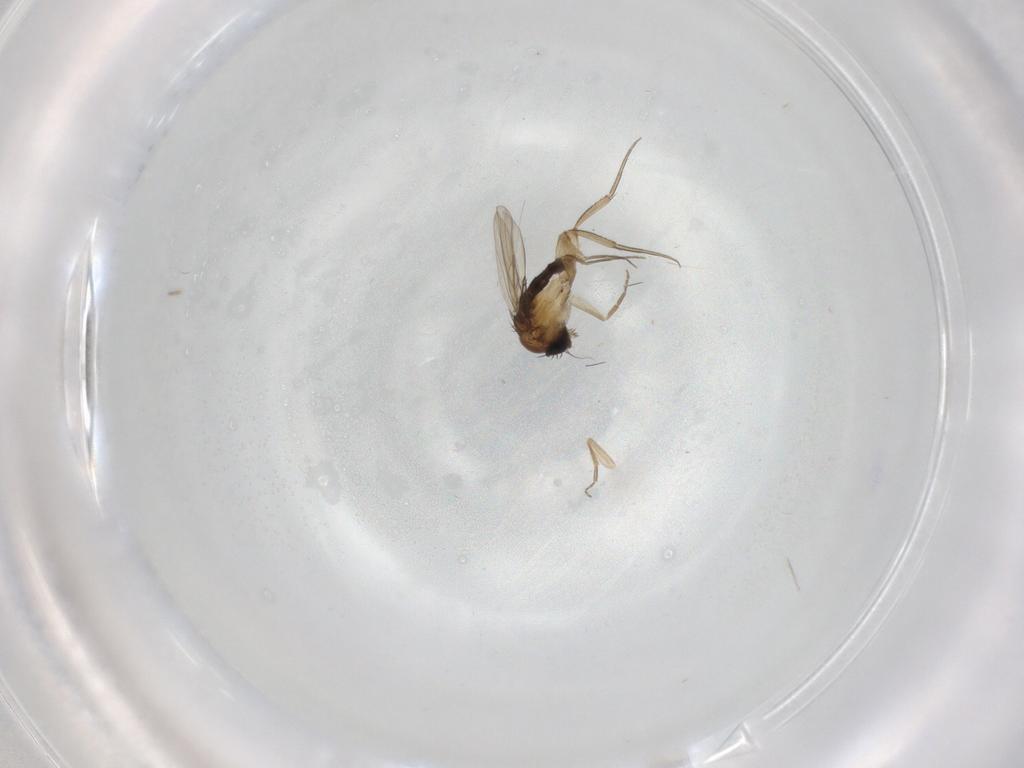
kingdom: Animalia
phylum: Arthropoda
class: Insecta
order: Diptera
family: Phoridae
